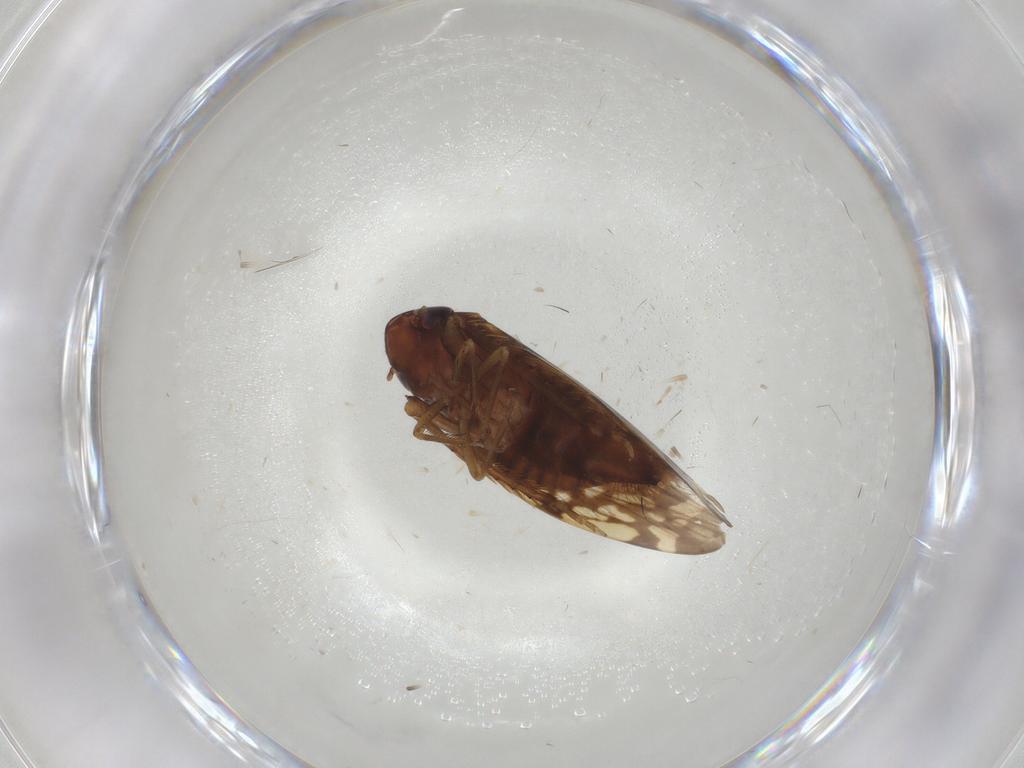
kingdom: Animalia
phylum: Arthropoda
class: Insecta
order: Hemiptera
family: Cicadellidae
